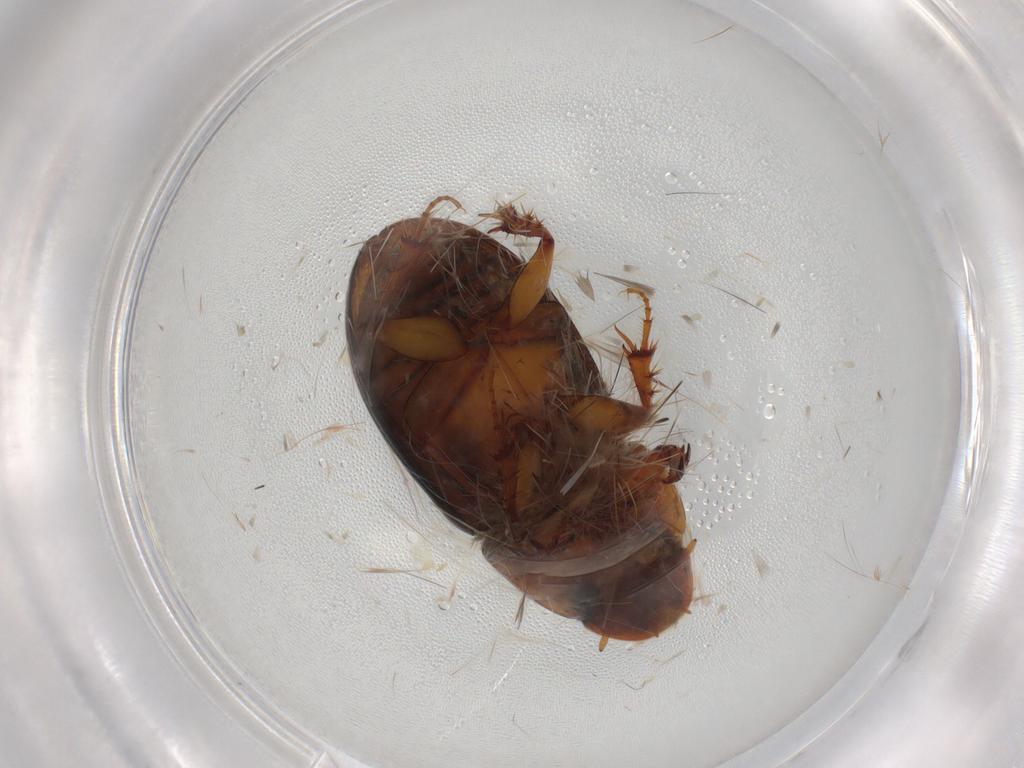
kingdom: Animalia
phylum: Arthropoda
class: Insecta
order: Coleoptera
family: Scarabaeidae
